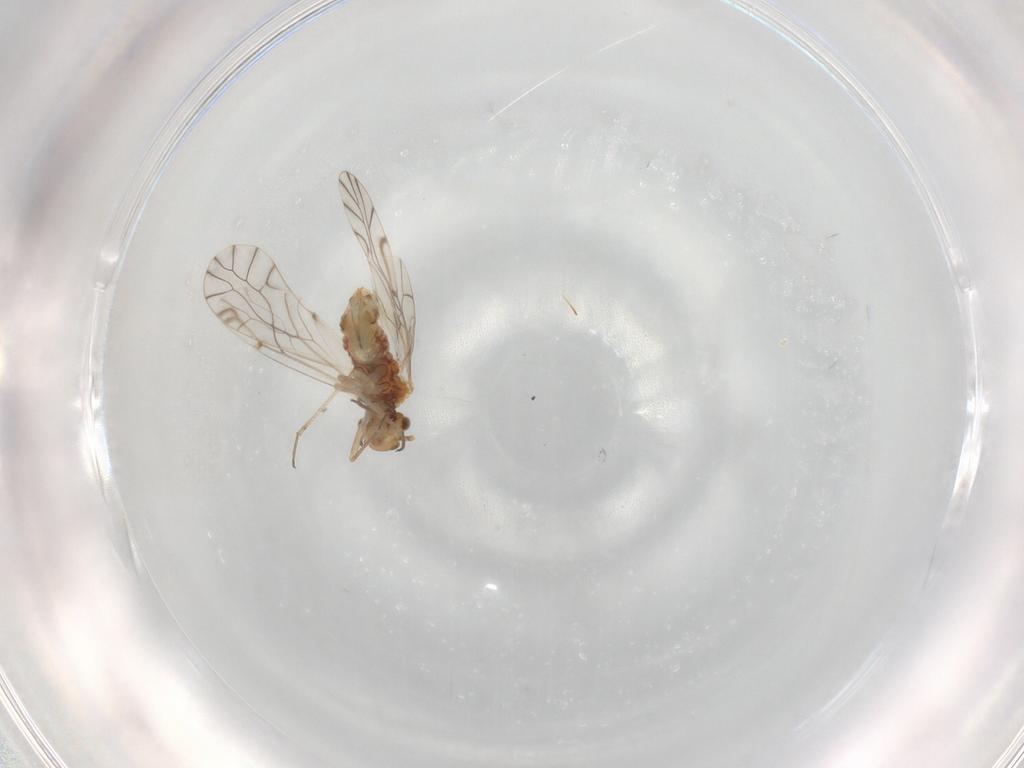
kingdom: Animalia
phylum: Arthropoda
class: Insecta
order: Psocodea
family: Lachesillidae
